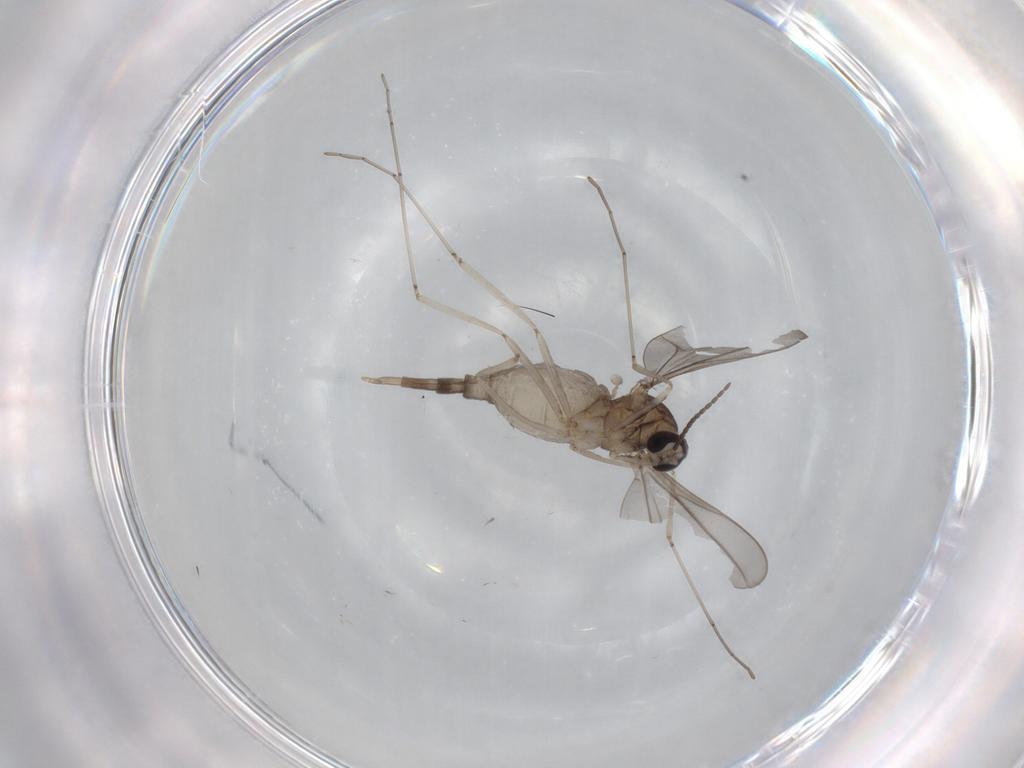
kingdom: Animalia
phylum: Arthropoda
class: Insecta
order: Diptera
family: Cecidomyiidae
